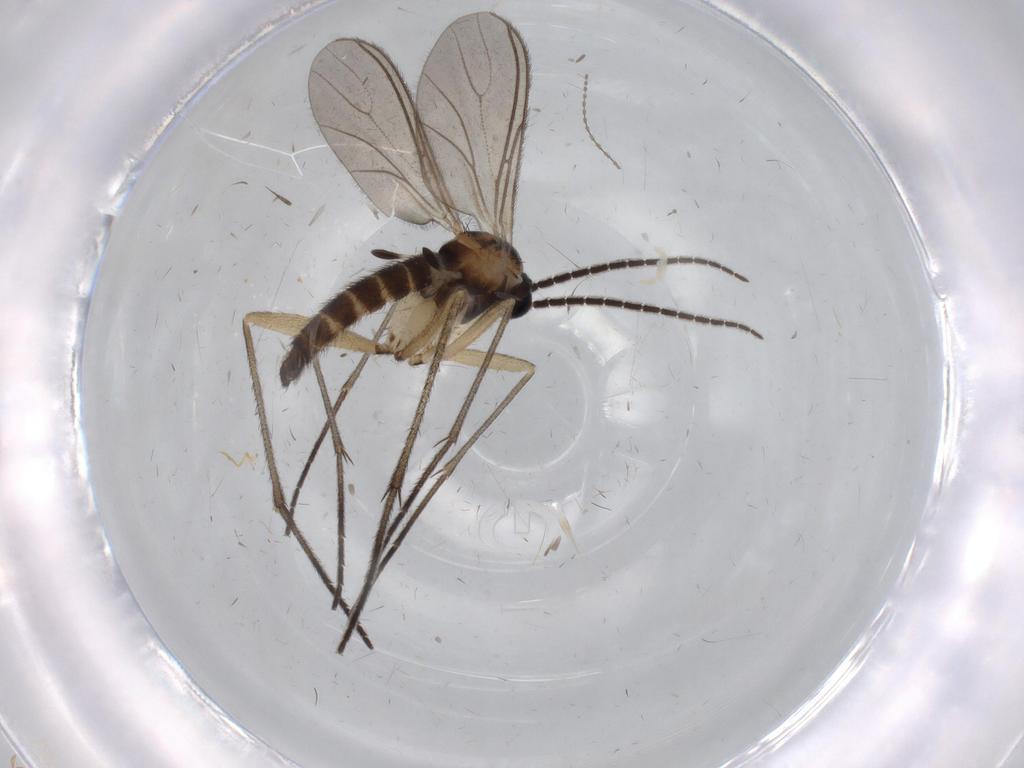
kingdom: Animalia
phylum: Arthropoda
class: Insecta
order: Diptera
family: Sciaridae
